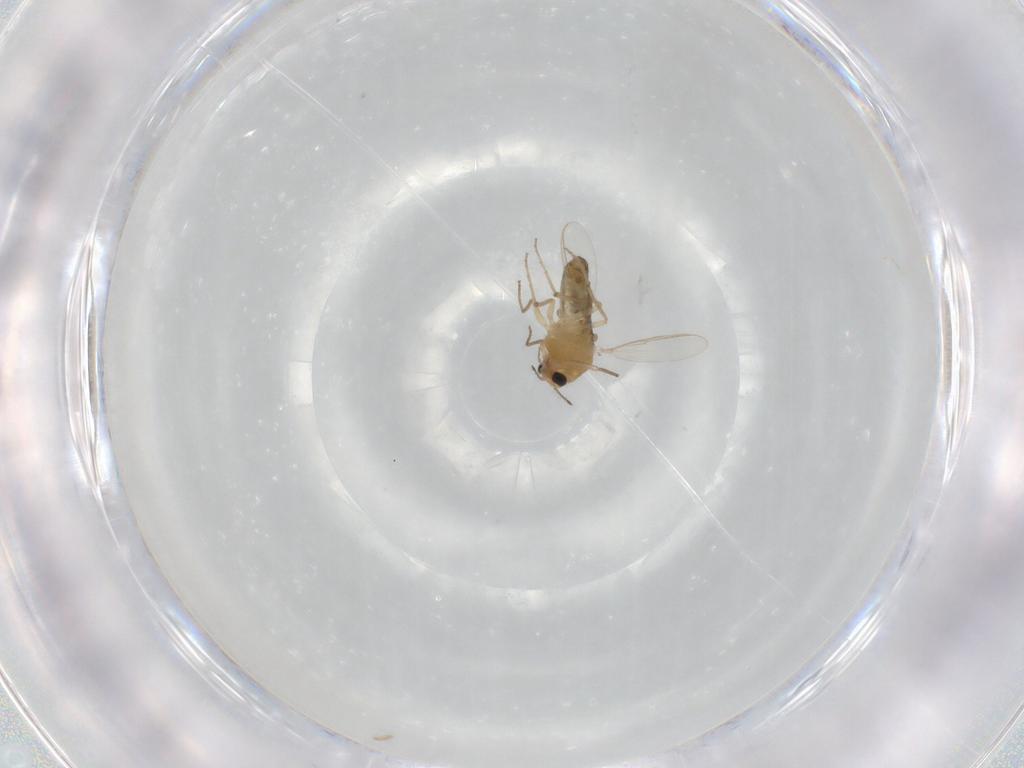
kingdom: Animalia
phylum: Arthropoda
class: Insecta
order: Diptera
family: Chironomidae
